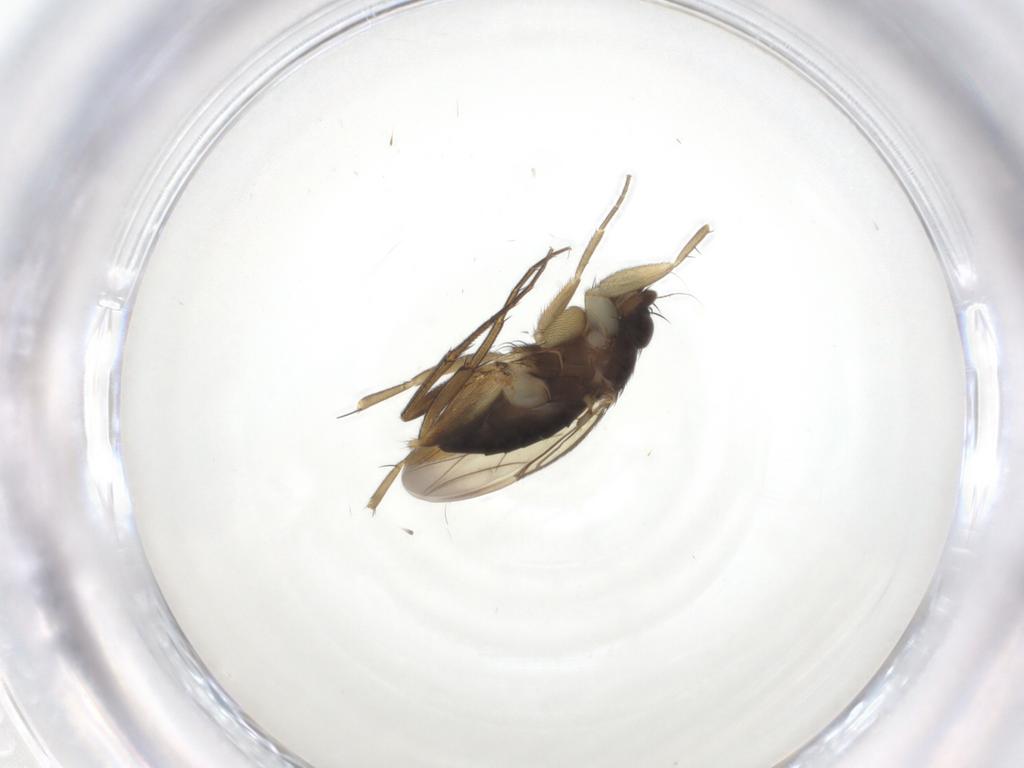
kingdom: Animalia
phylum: Arthropoda
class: Insecta
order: Diptera
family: Phoridae
